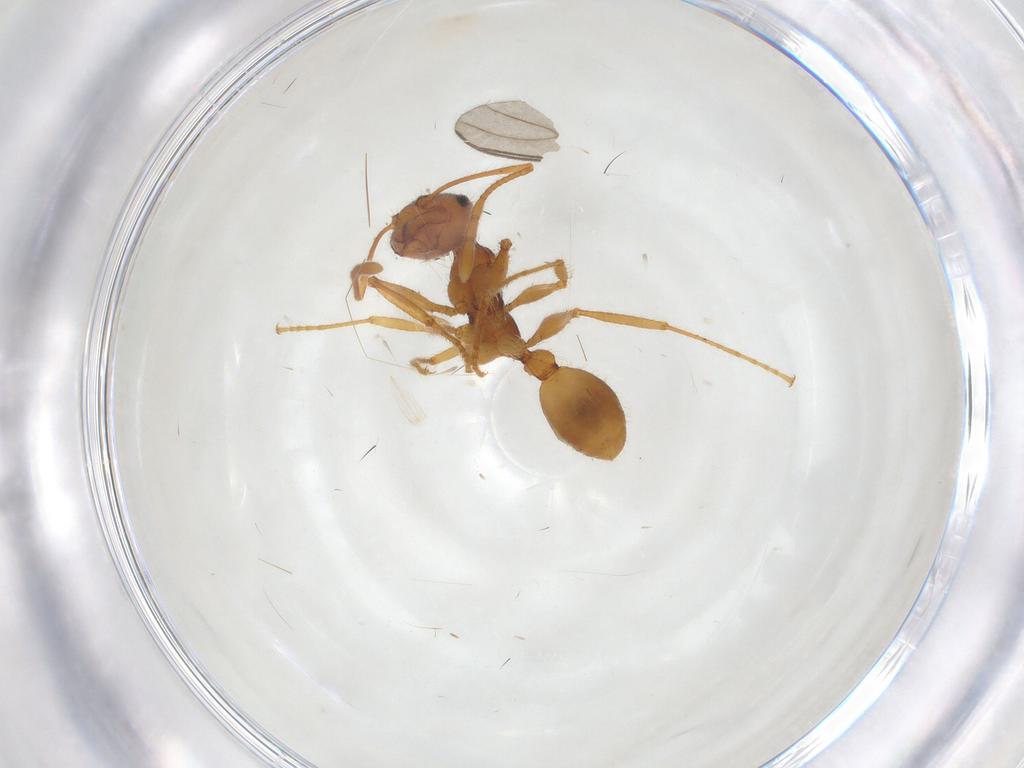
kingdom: Animalia
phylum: Arthropoda
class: Insecta
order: Hymenoptera
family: Formicidae
